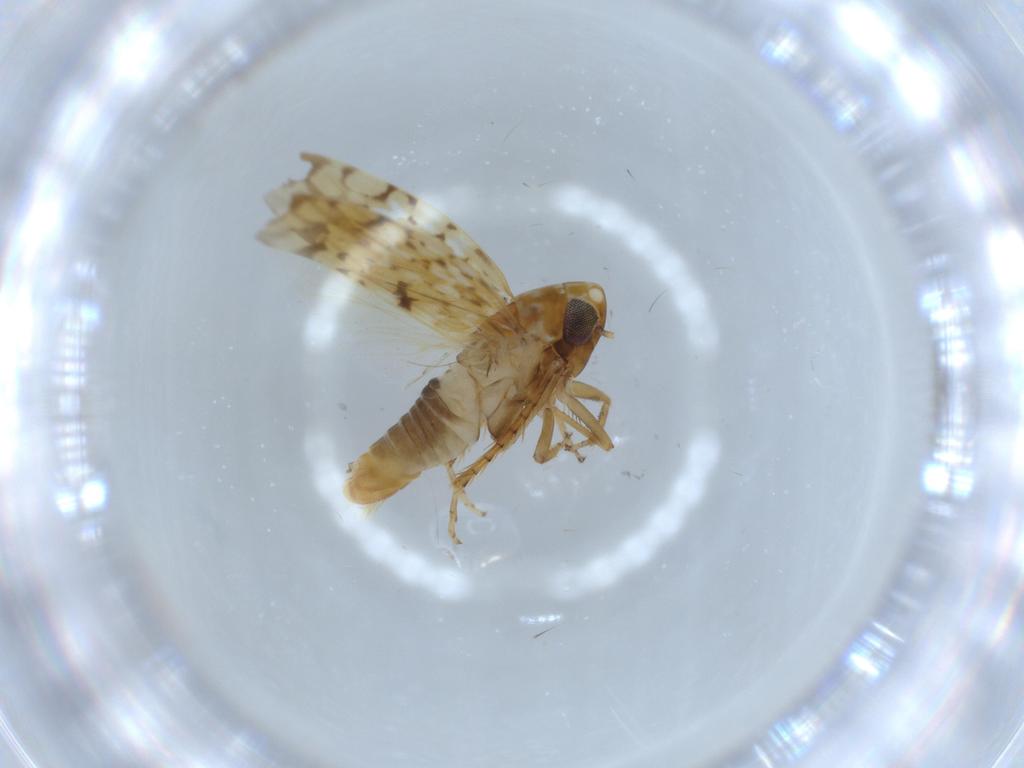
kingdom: Animalia
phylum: Arthropoda
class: Insecta
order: Hemiptera
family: Cicadellidae
